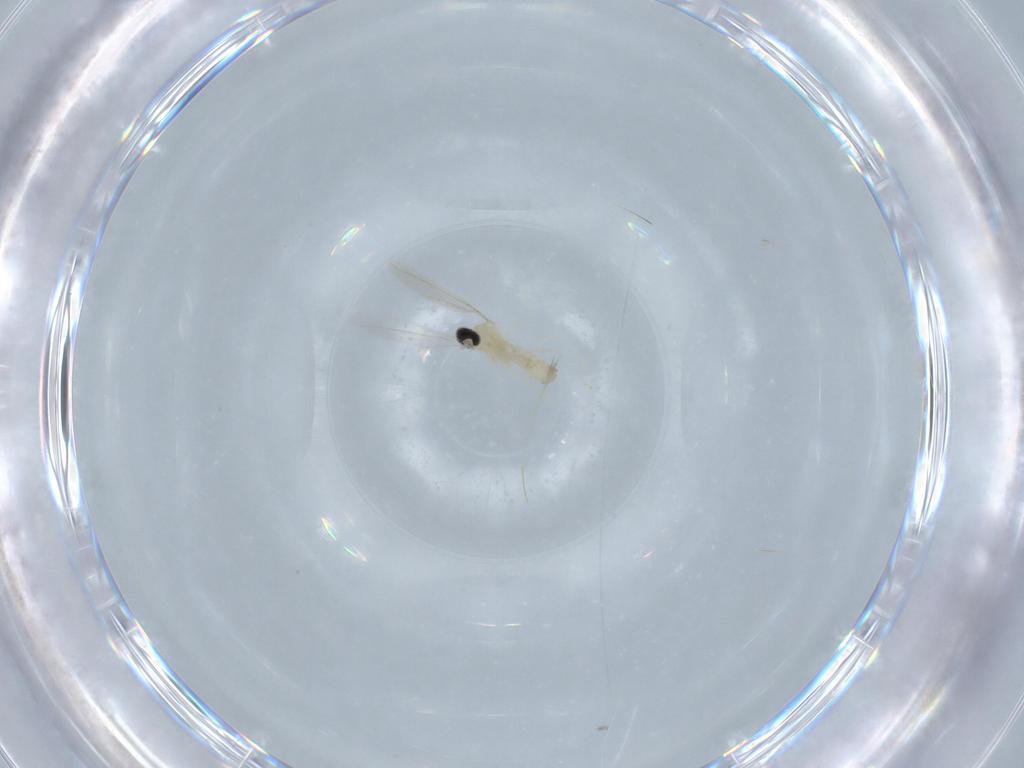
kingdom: Animalia
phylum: Arthropoda
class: Insecta
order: Diptera
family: Ceratopogonidae
